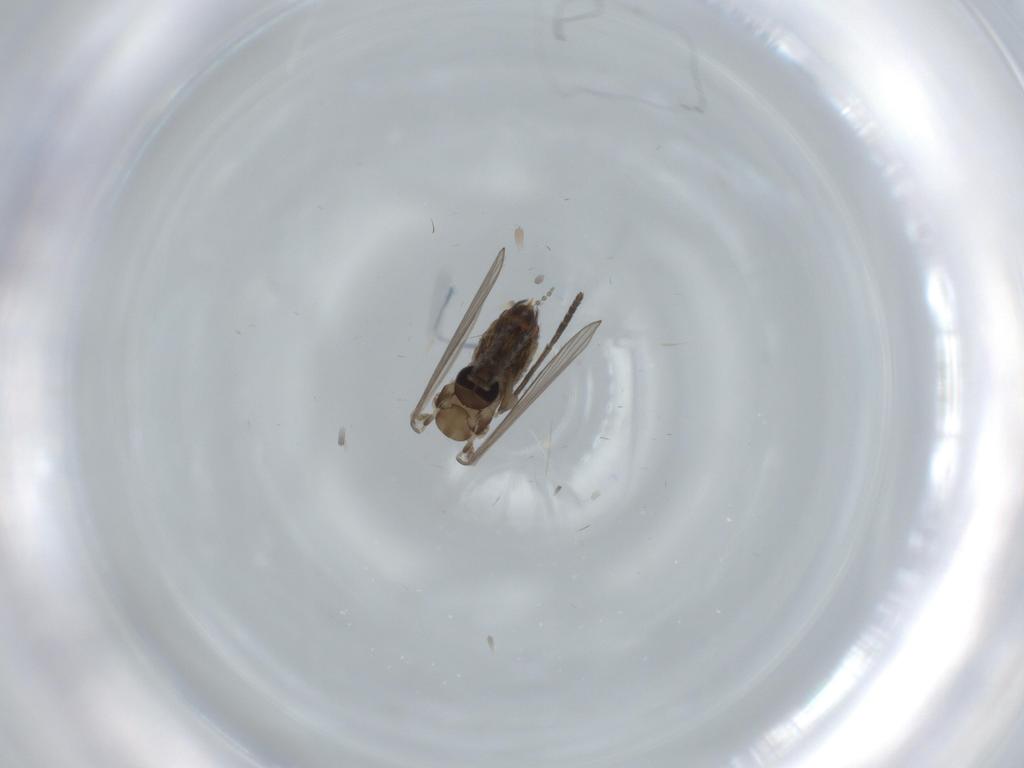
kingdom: Animalia
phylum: Arthropoda
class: Insecta
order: Diptera
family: Psychodidae
